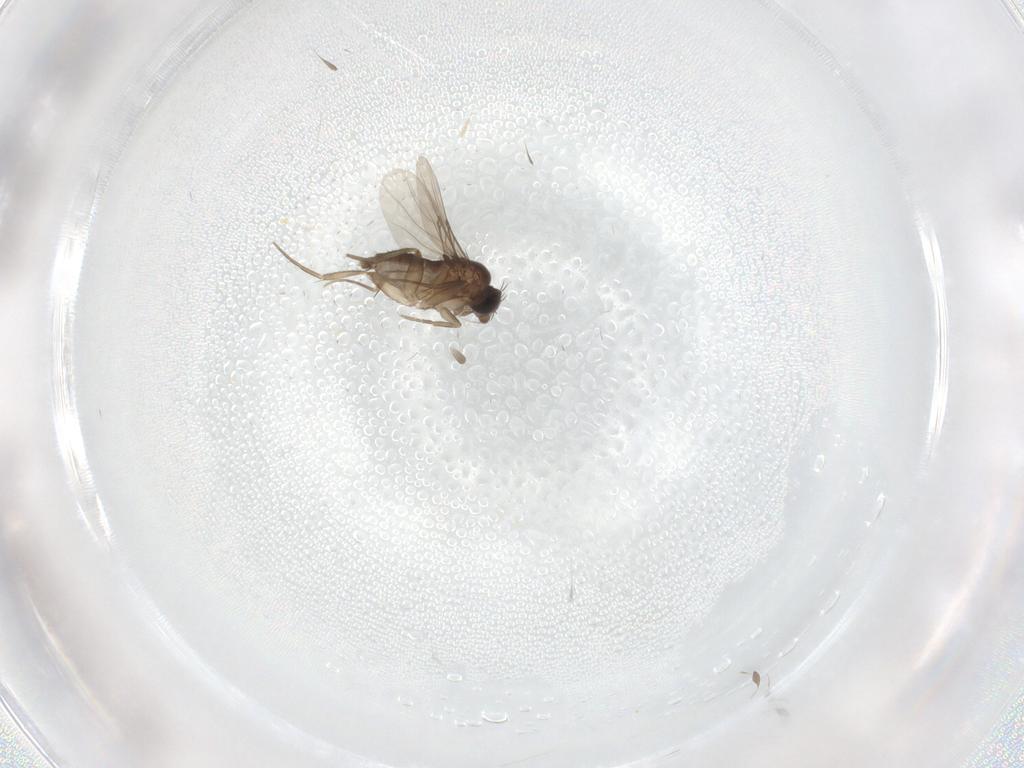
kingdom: Animalia
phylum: Arthropoda
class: Insecta
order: Diptera
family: Phoridae
